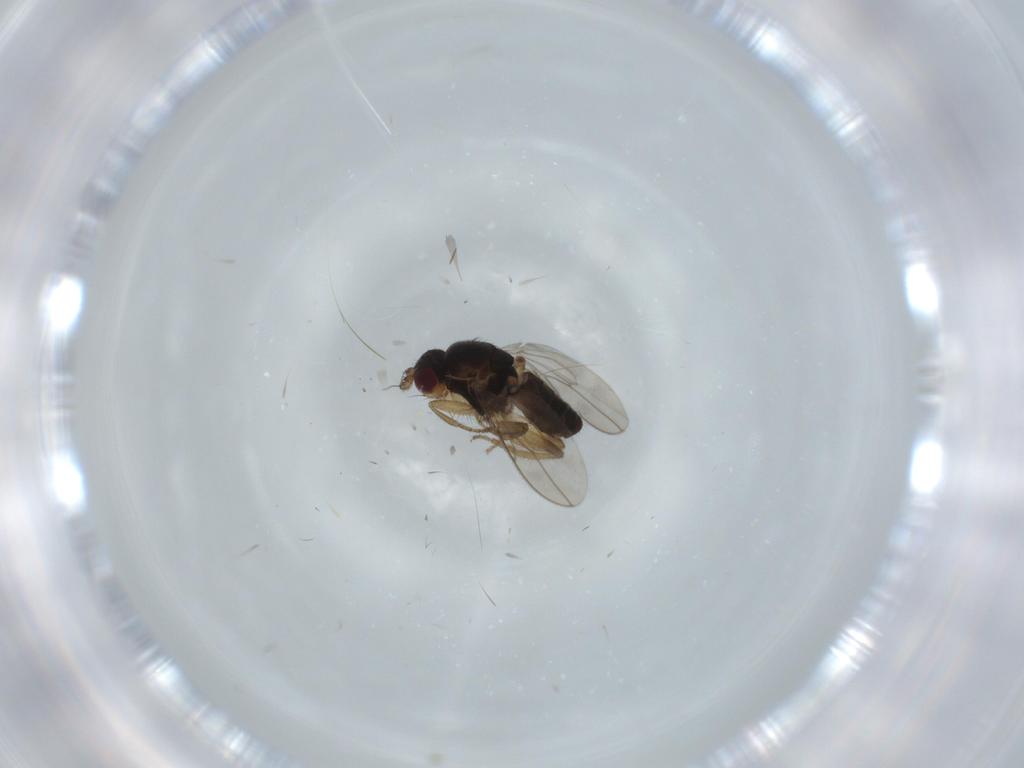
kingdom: Animalia
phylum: Arthropoda
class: Insecta
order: Diptera
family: Sphaeroceridae
